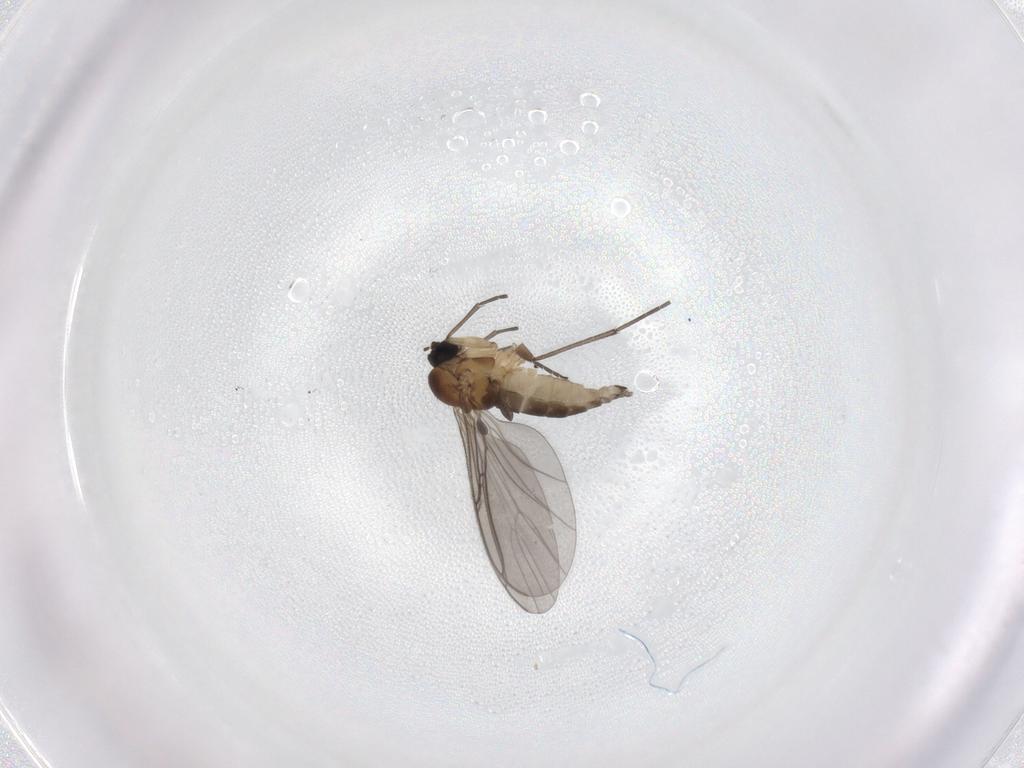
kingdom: Animalia
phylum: Arthropoda
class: Insecta
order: Diptera
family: Sciaridae
